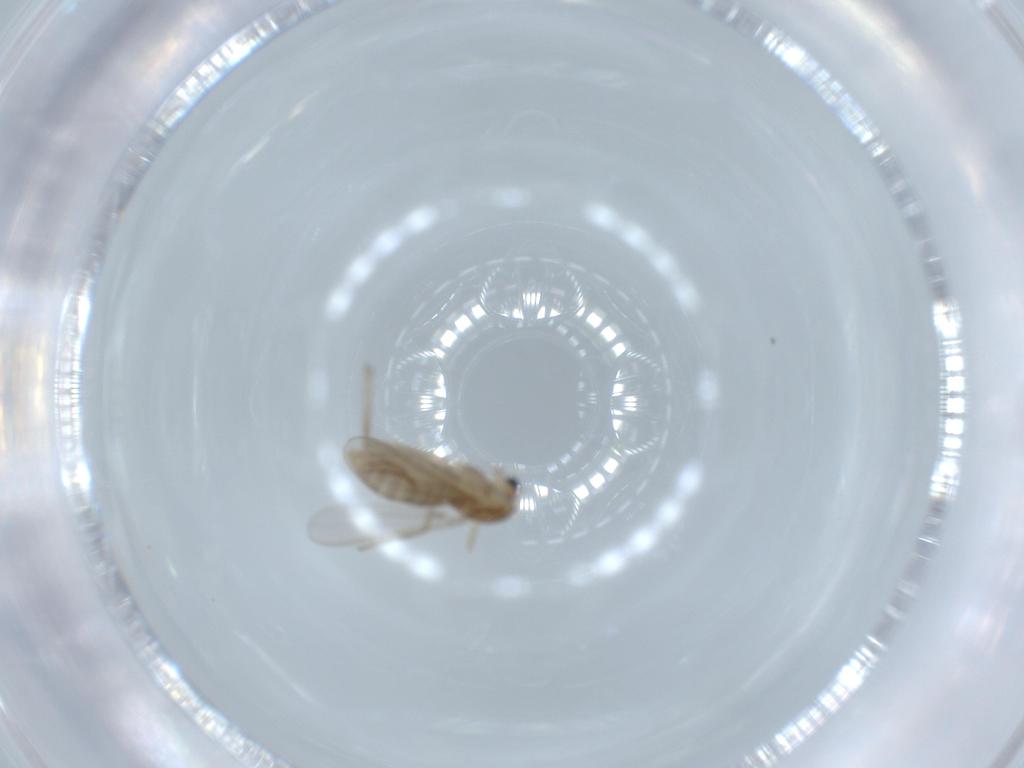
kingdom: Animalia
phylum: Arthropoda
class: Insecta
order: Diptera
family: Chironomidae
